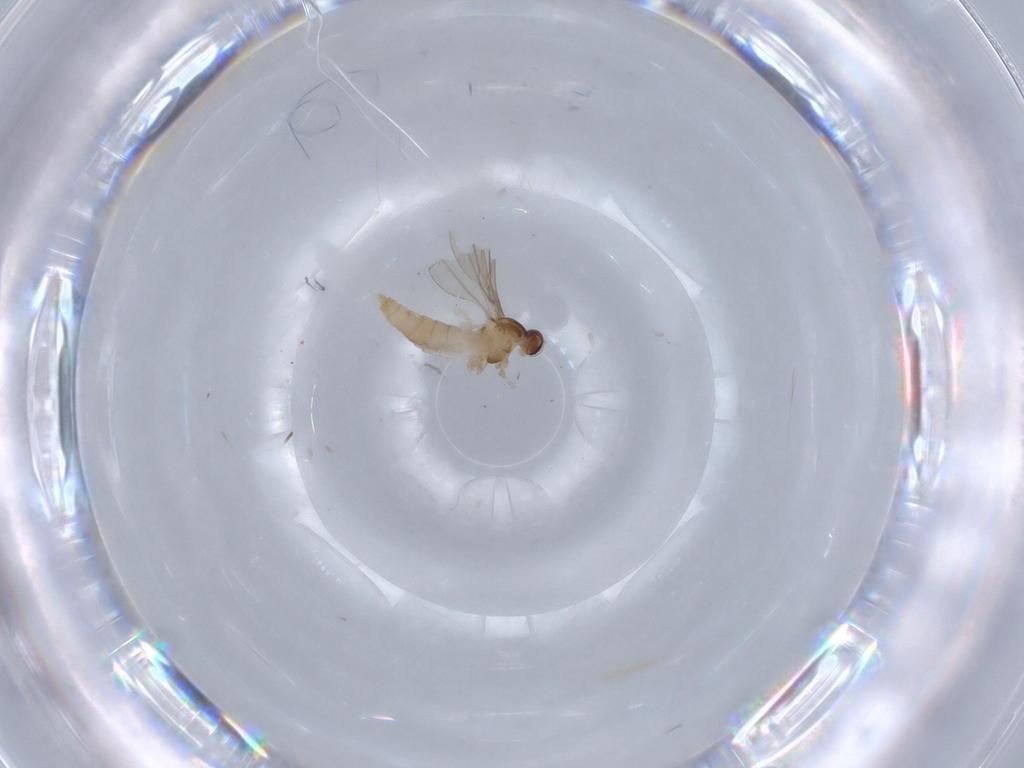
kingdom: Animalia
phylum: Arthropoda
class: Insecta
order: Diptera
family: Cecidomyiidae
